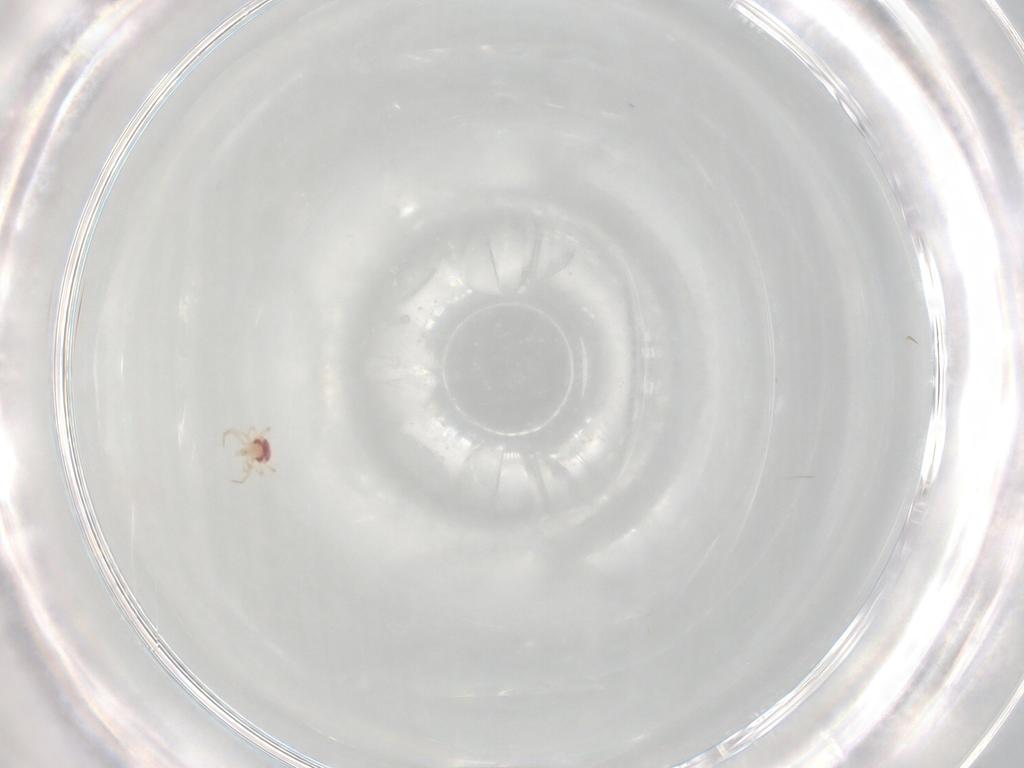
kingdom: Animalia
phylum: Arthropoda
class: Arachnida
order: Trombidiformes
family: Tetranychidae
